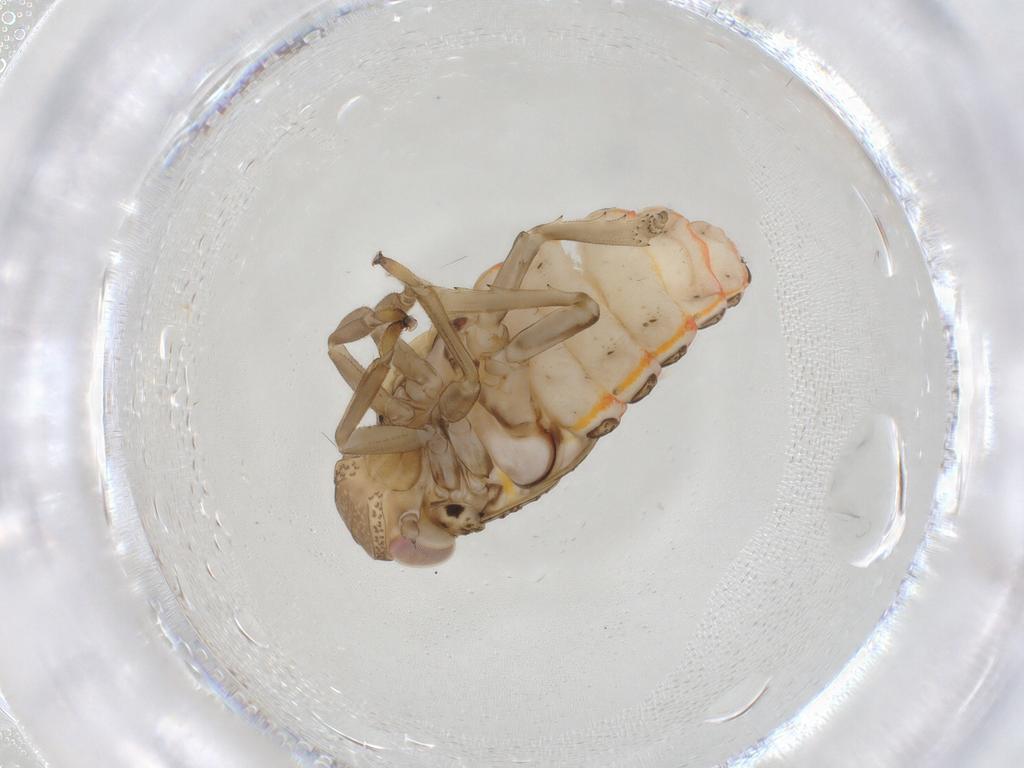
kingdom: Animalia
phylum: Arthropoda
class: Insecta
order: Hemiptera
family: Issidae
